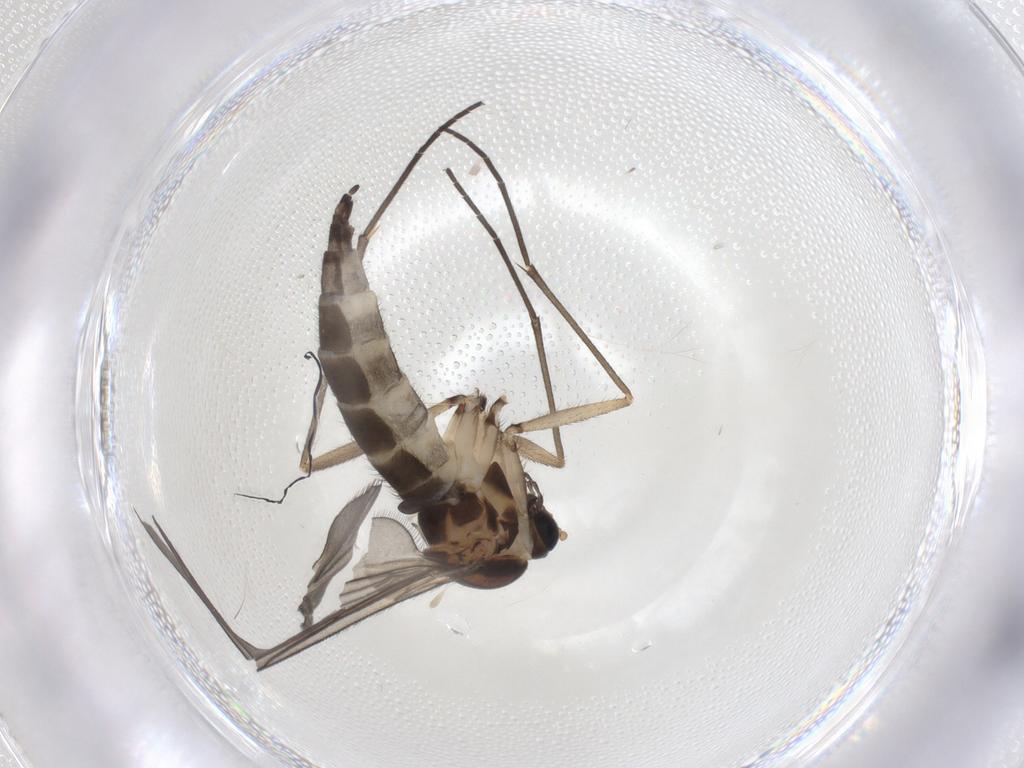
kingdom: Animalia
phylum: Arthropoda
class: Insecta
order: Diptera
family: Sciaridae
